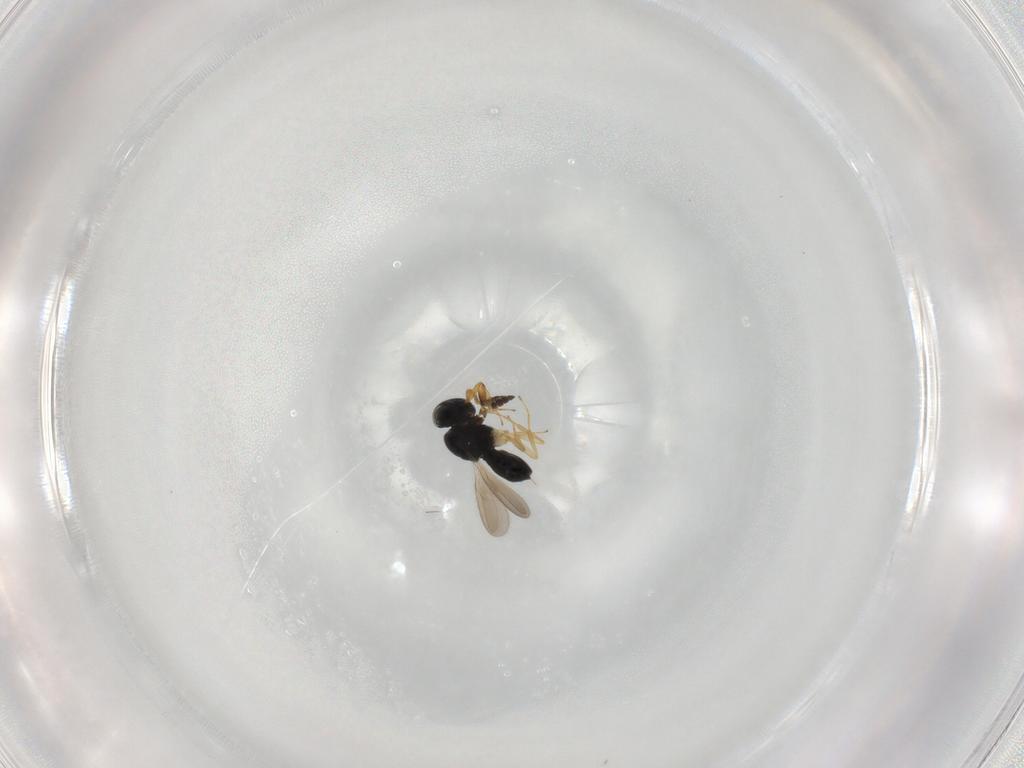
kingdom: Animalia
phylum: Arthropoda
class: Insecta
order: Hymenoptera
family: Scelionidae
